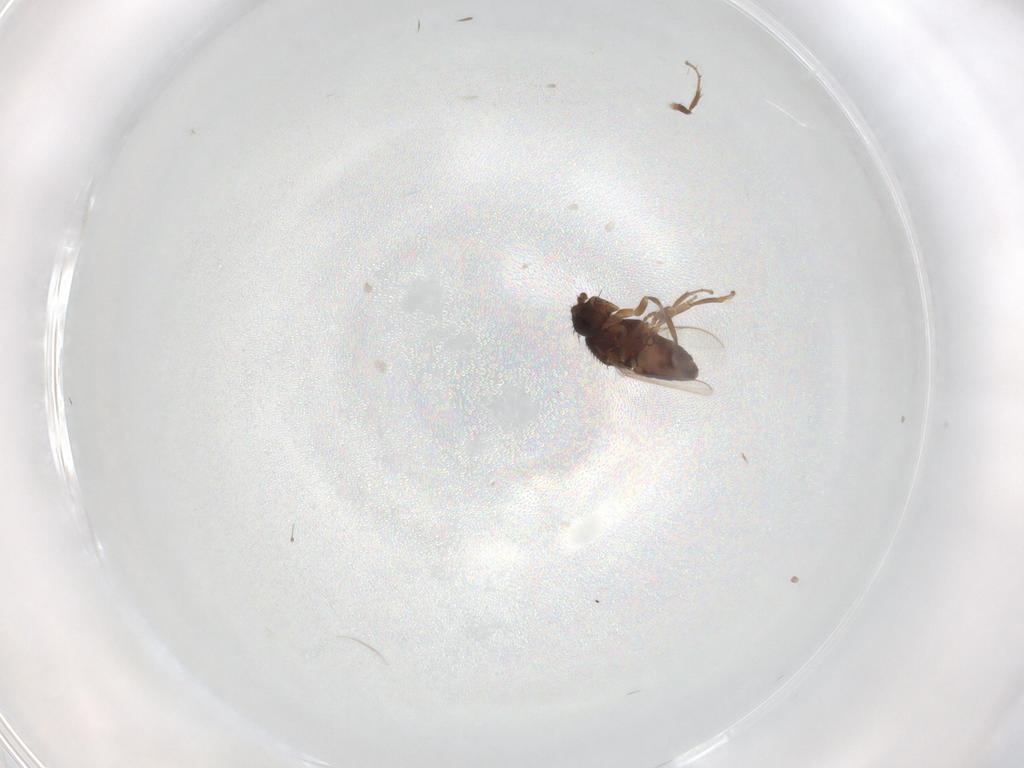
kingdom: Animalia
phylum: Arthropoda
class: Insecta
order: Diptera
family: Sphaeroceridae
